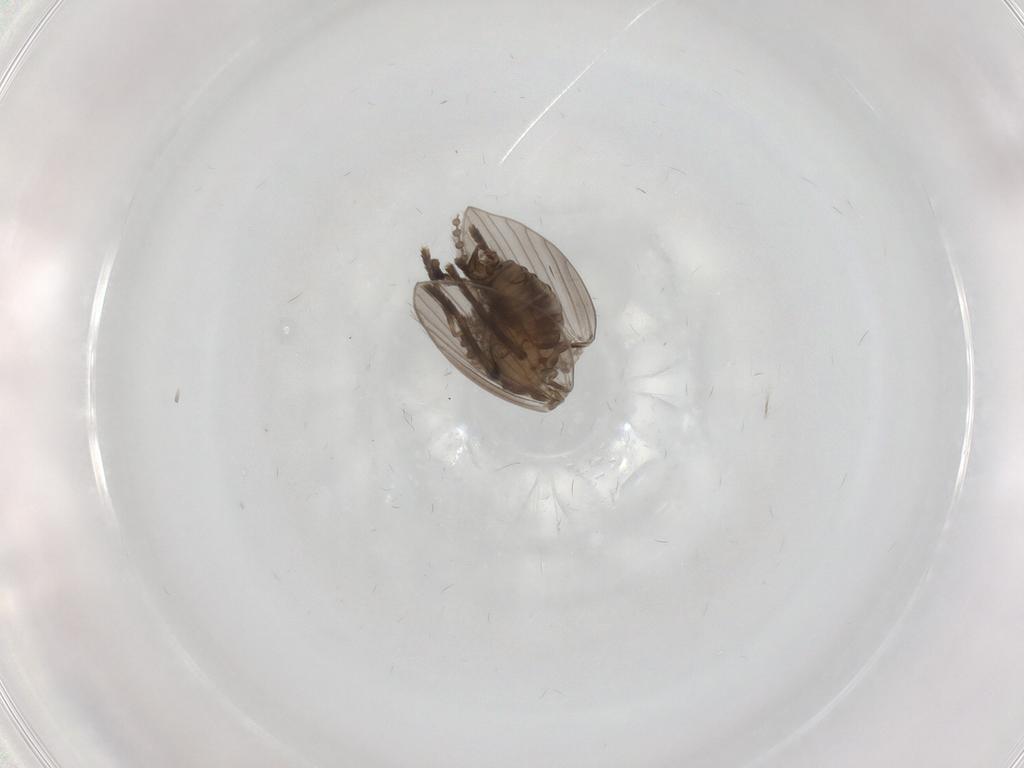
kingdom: Animalia
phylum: Arthropoda
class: Insecta
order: Diptera
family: Psychodidae
